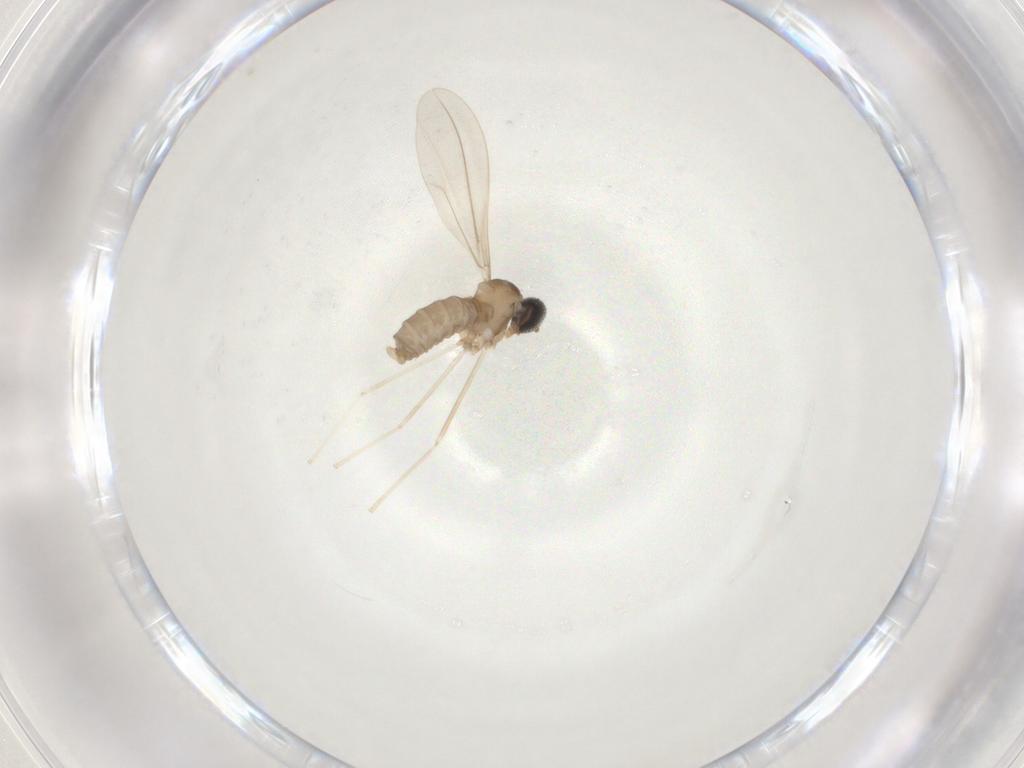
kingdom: Animalia
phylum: Arthropoda
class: Insecta
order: Diptera
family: Cecidomyiidae
